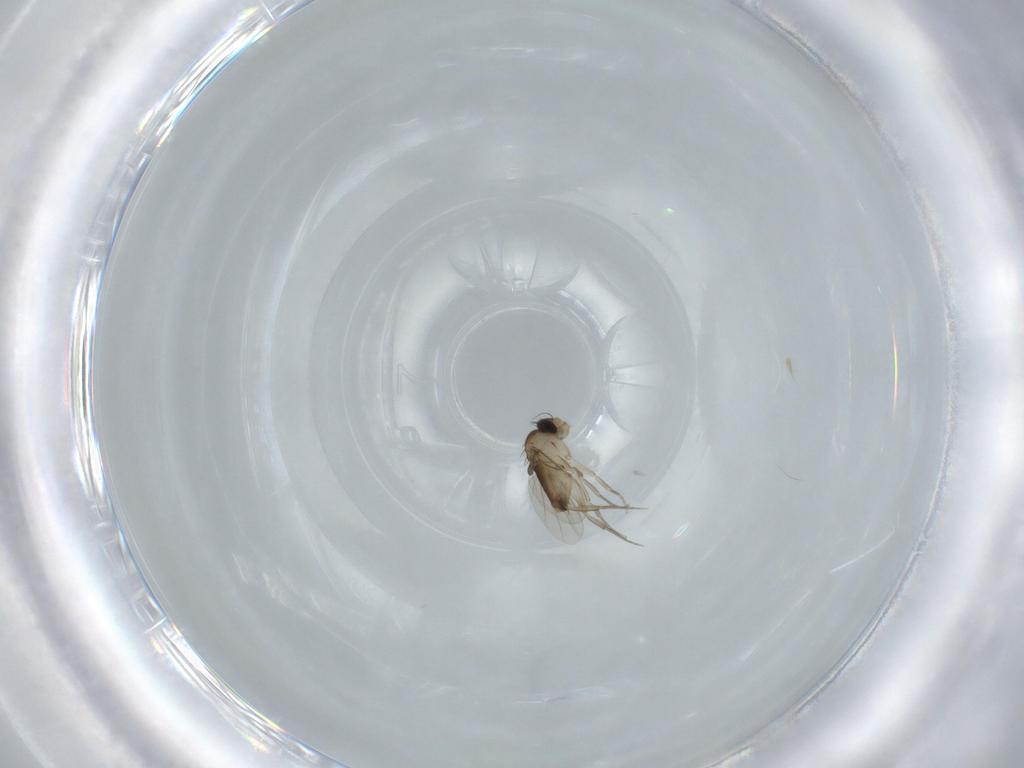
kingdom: Animalia
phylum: Arthropoda
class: Insecta
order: Diptera
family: Phoridae
